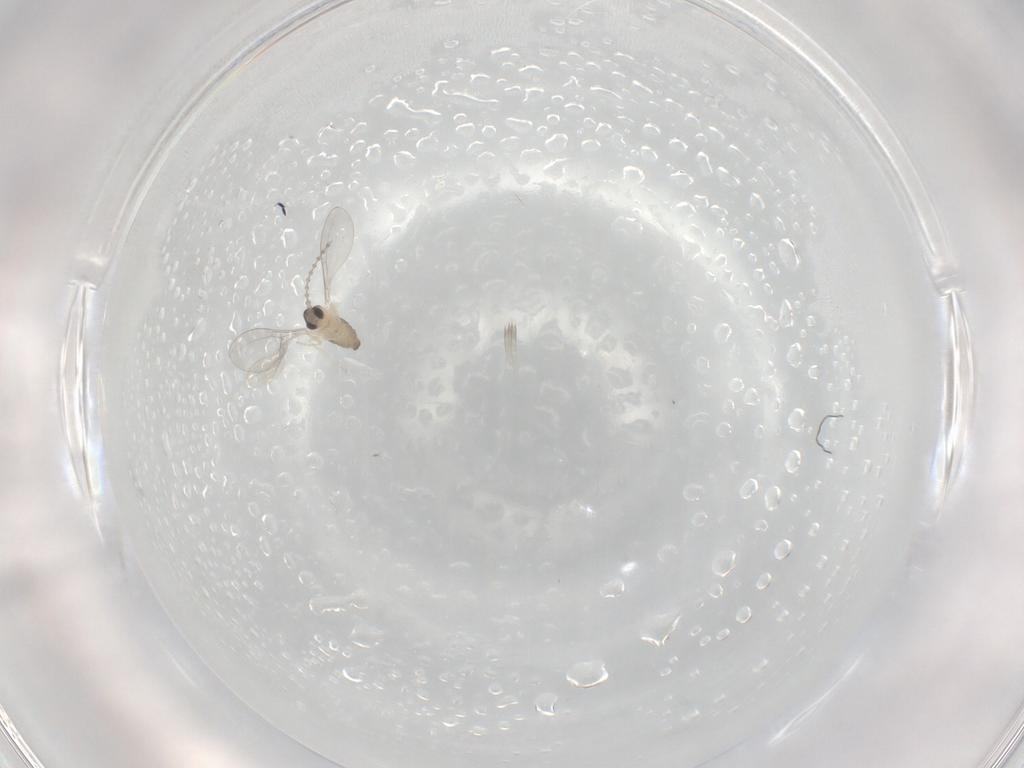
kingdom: Animalia
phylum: Arthropoda
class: Insecta
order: Diptera
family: Cecidomyiidae
